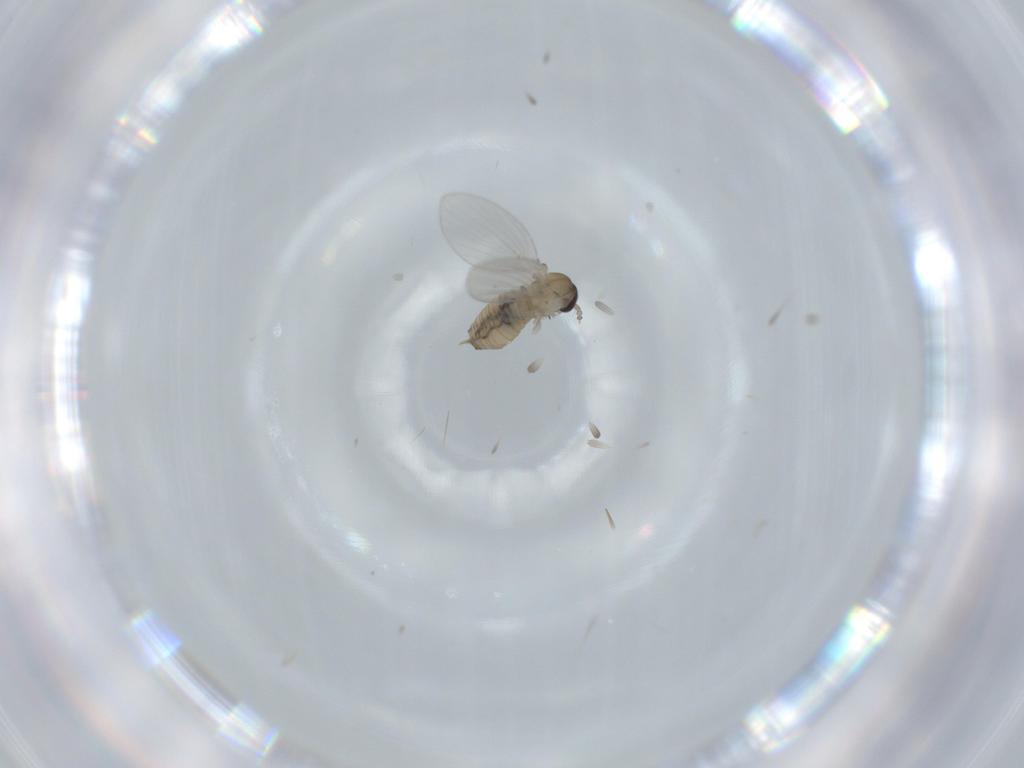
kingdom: Animalia
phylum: Arthropoda
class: Insecta
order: Diptera
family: Psychodidae
